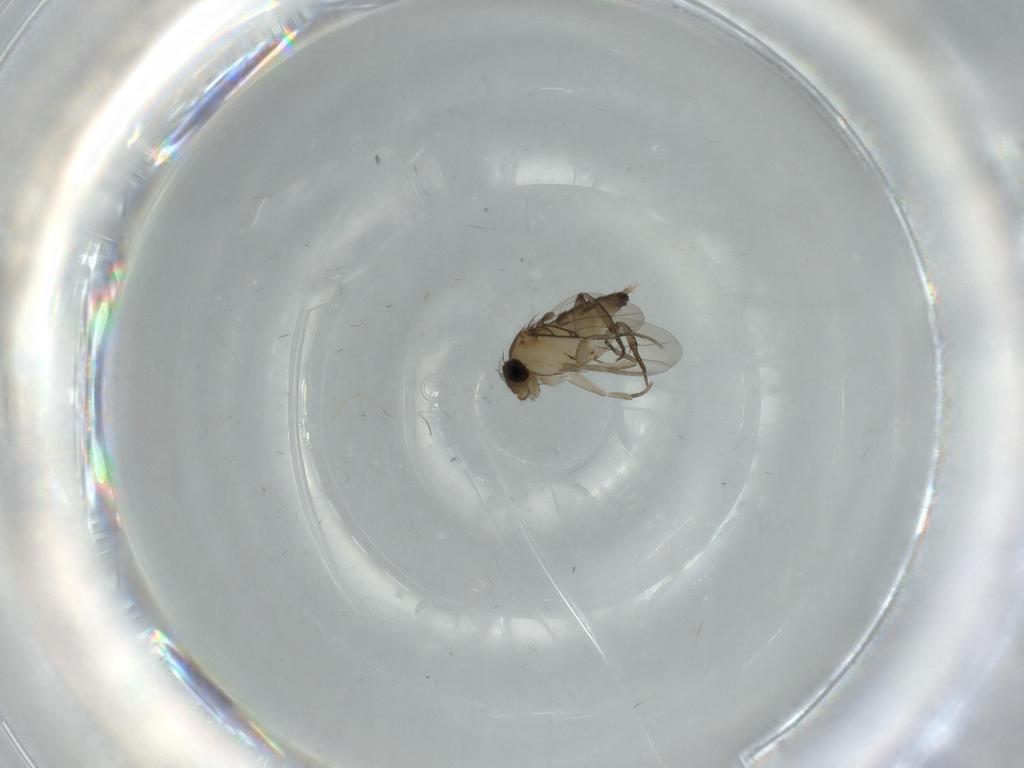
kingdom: Animalia
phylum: Arthropoda
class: Insecta
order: Diptera
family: Phoridae
